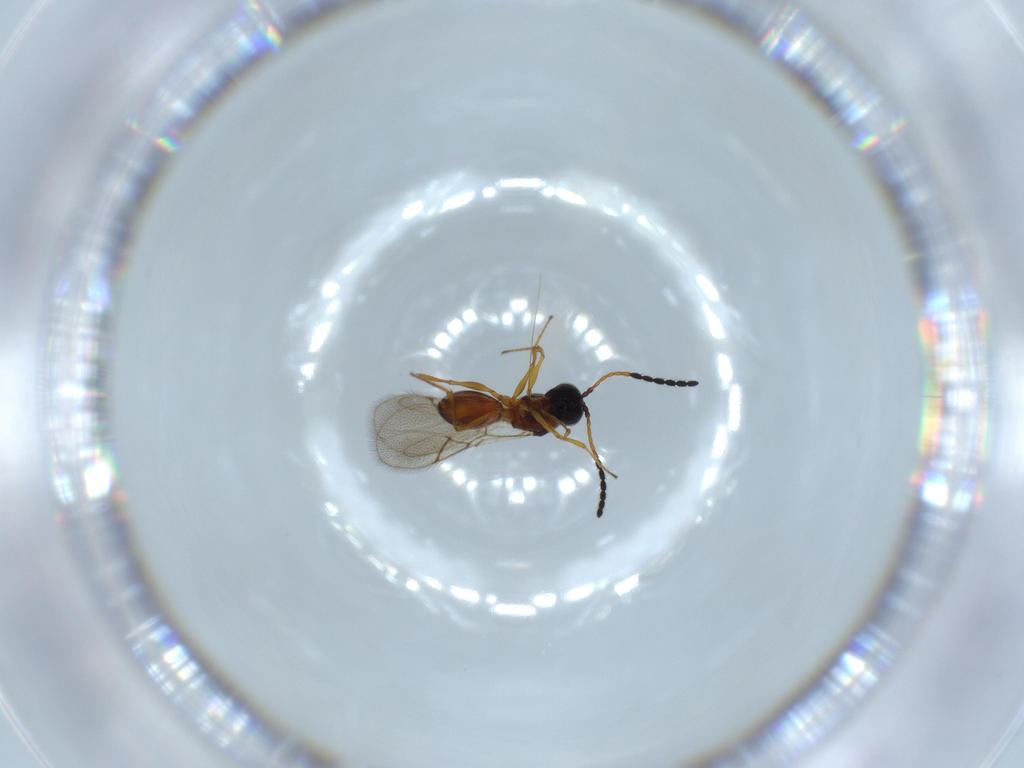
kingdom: Animalia
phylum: Arthropoda
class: Insecta
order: Hymenoptera
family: Figitidae
